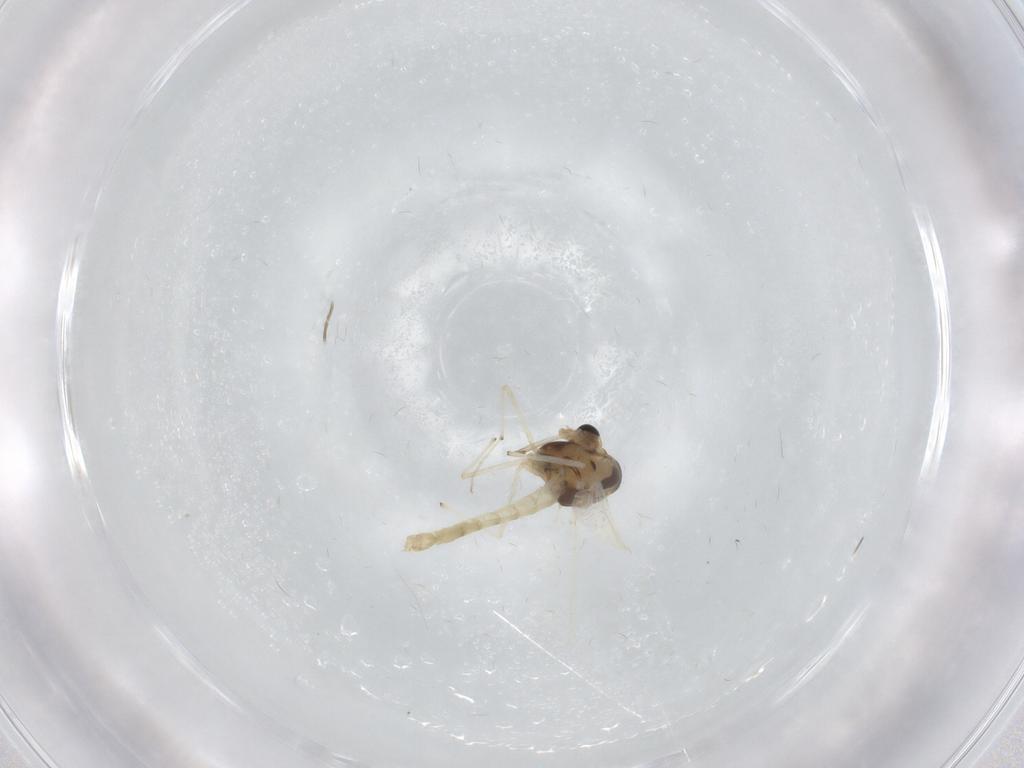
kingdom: Animalia
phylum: Arthropoda
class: Insecta
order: Diptera
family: Chironomidae
